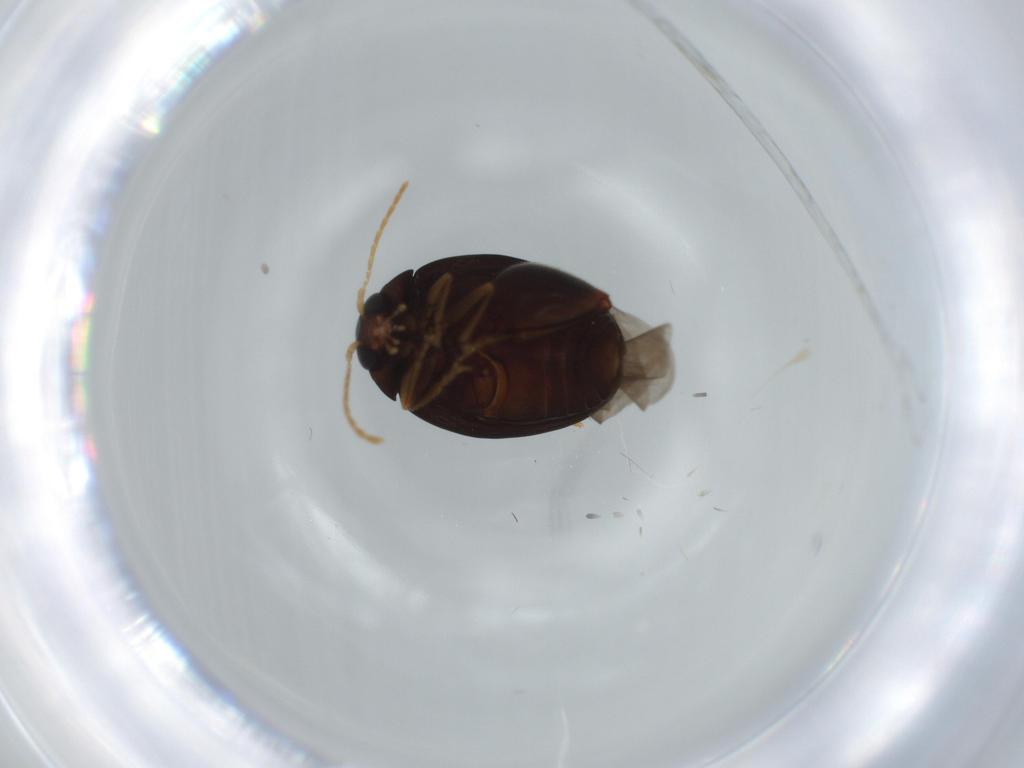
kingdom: Animalia
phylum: Arthropoda
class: Insecta
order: Coleoptera
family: Chrysomelidae
